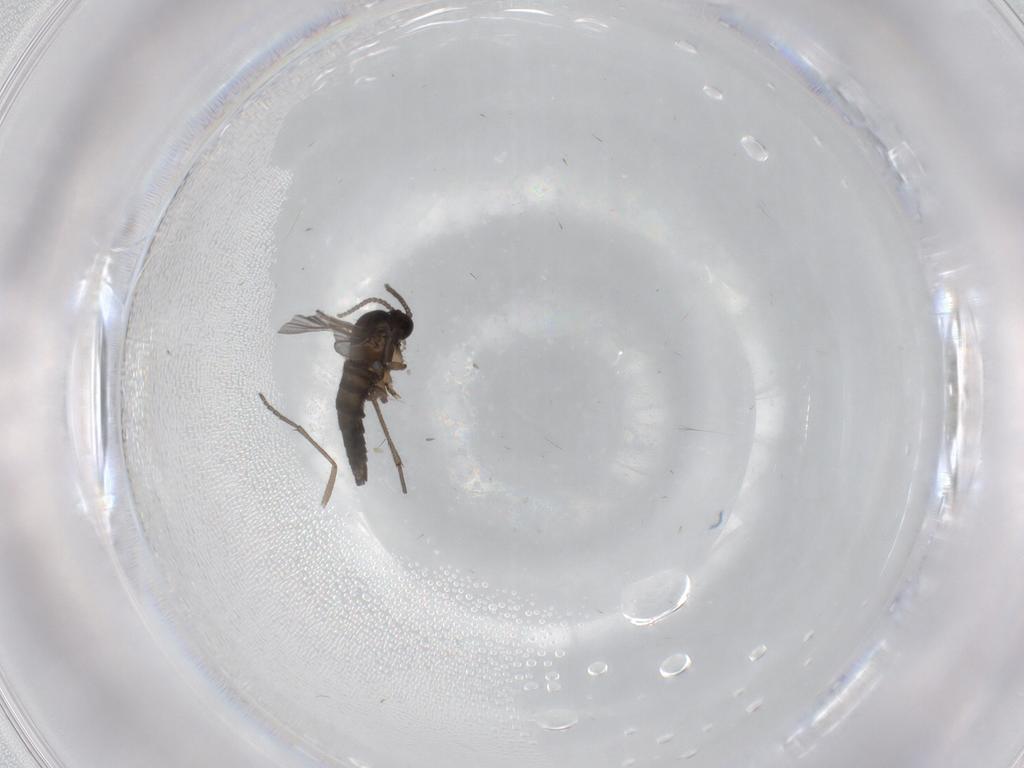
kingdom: Animalia
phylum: Arthropoda
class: Insecta
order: Diptera
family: Sciaridae
